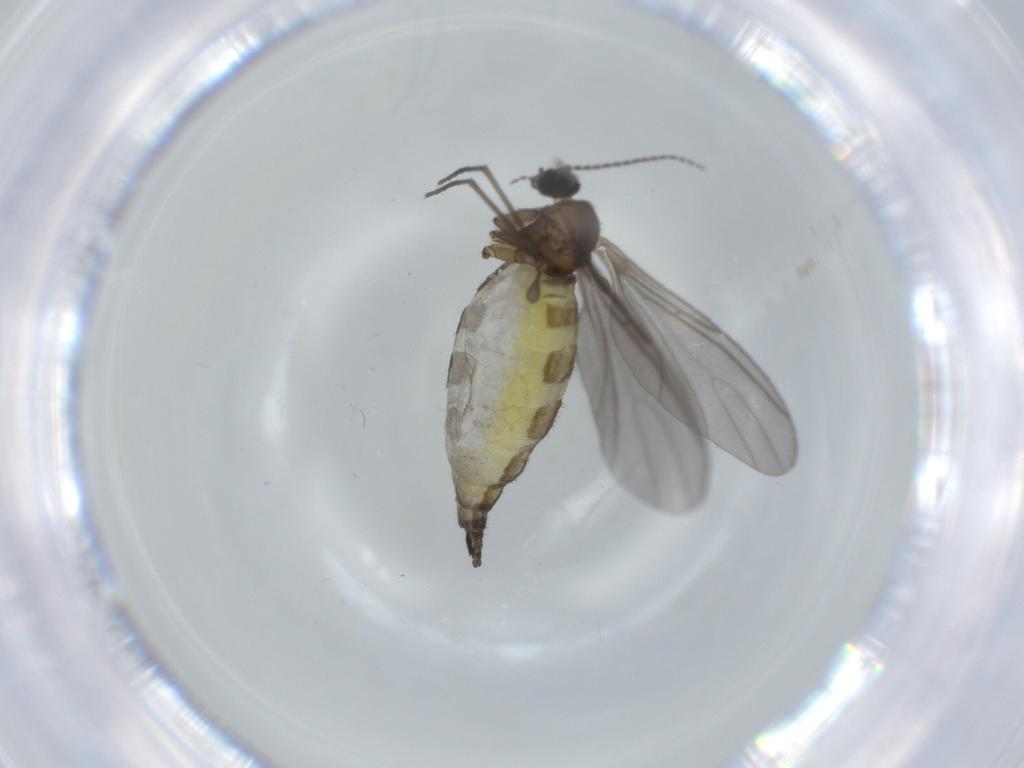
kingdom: Animalia
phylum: Arthropoda
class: Insecta
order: Diptera
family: Sciaridae
